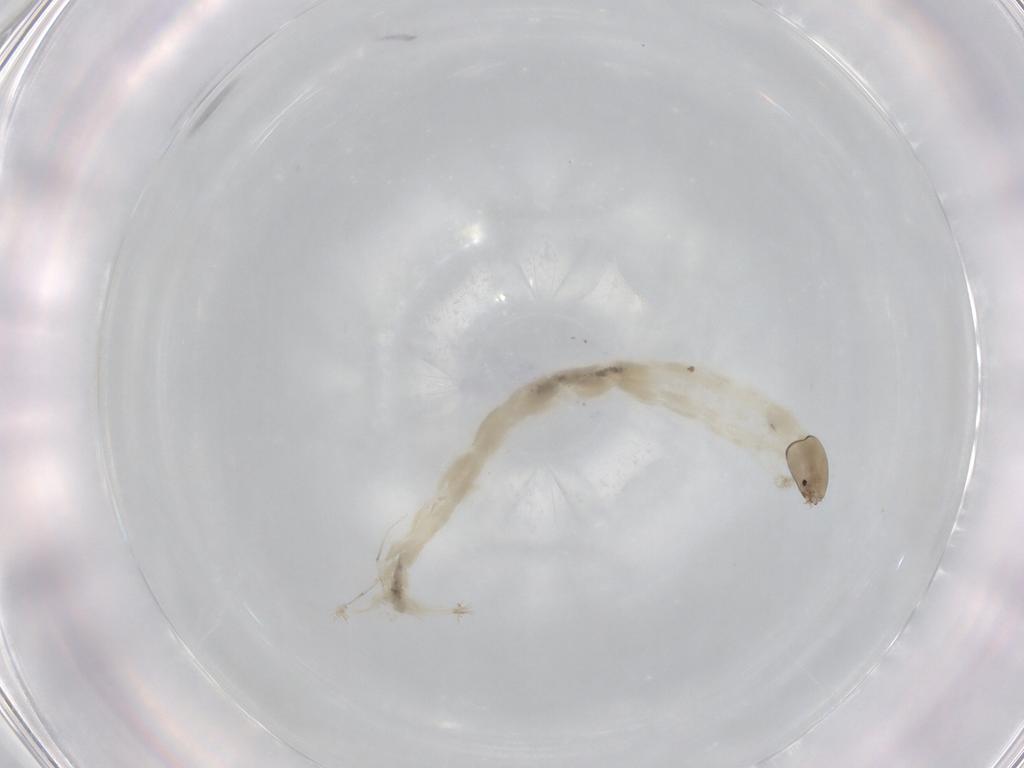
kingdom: Animalia
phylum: Arthropoda
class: Insecta
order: Diptera
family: Chironomidae
